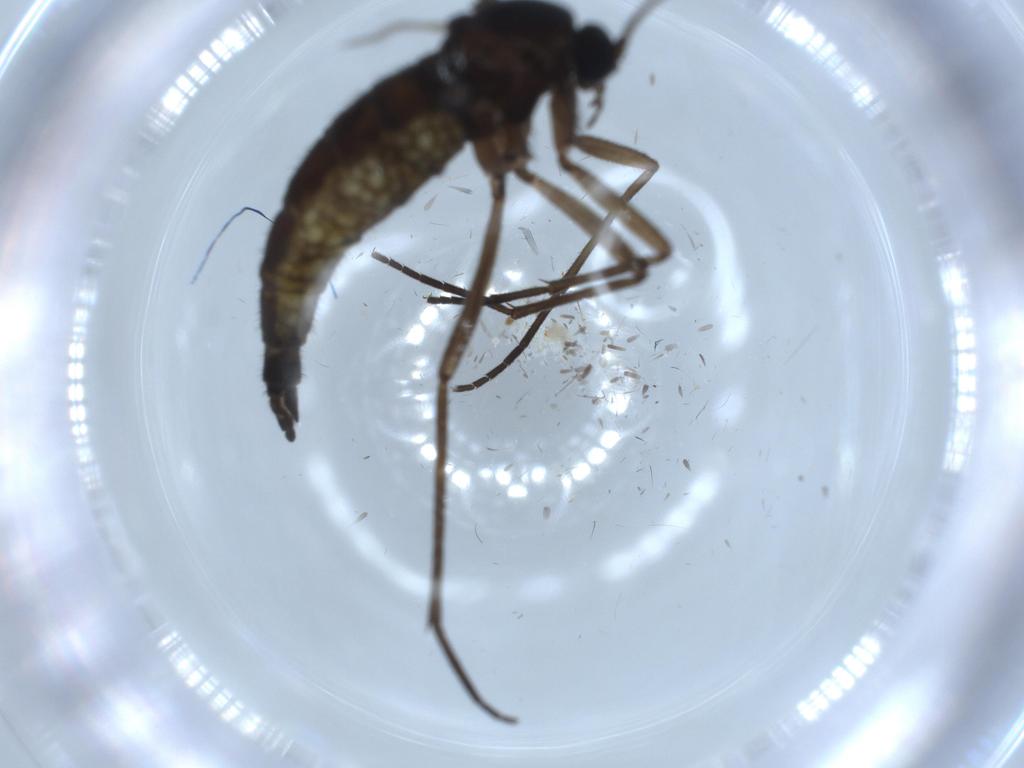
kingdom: Animalia
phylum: Arthropoda
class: Insecta
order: Diptera
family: Sciaridae
